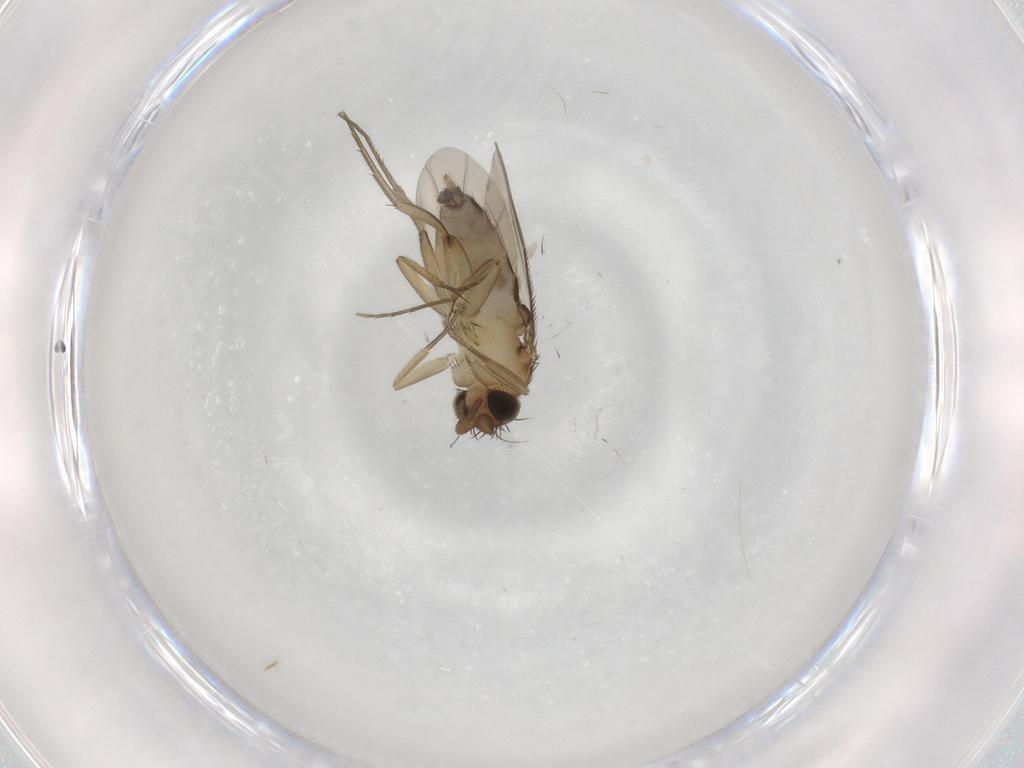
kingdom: Animalia
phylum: Arthropoda
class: Insecta
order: Diptera
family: Phoridae
